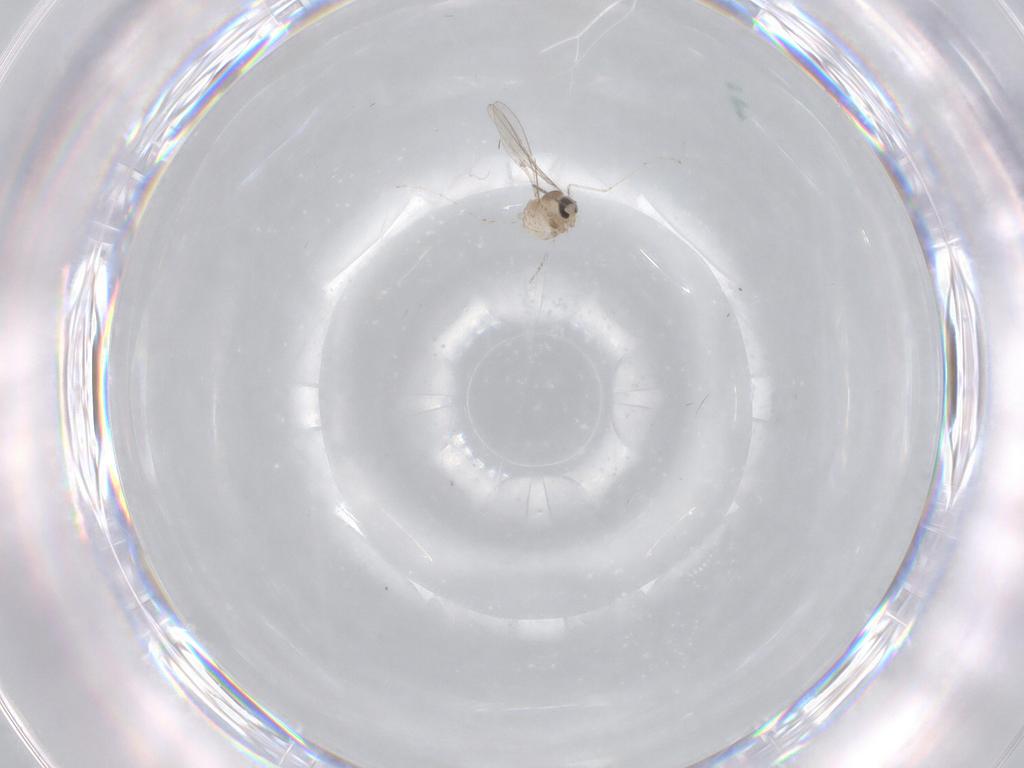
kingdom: Animalia
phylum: Arthropoda
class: Insecta
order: Diptera
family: Cecidomyiidae
